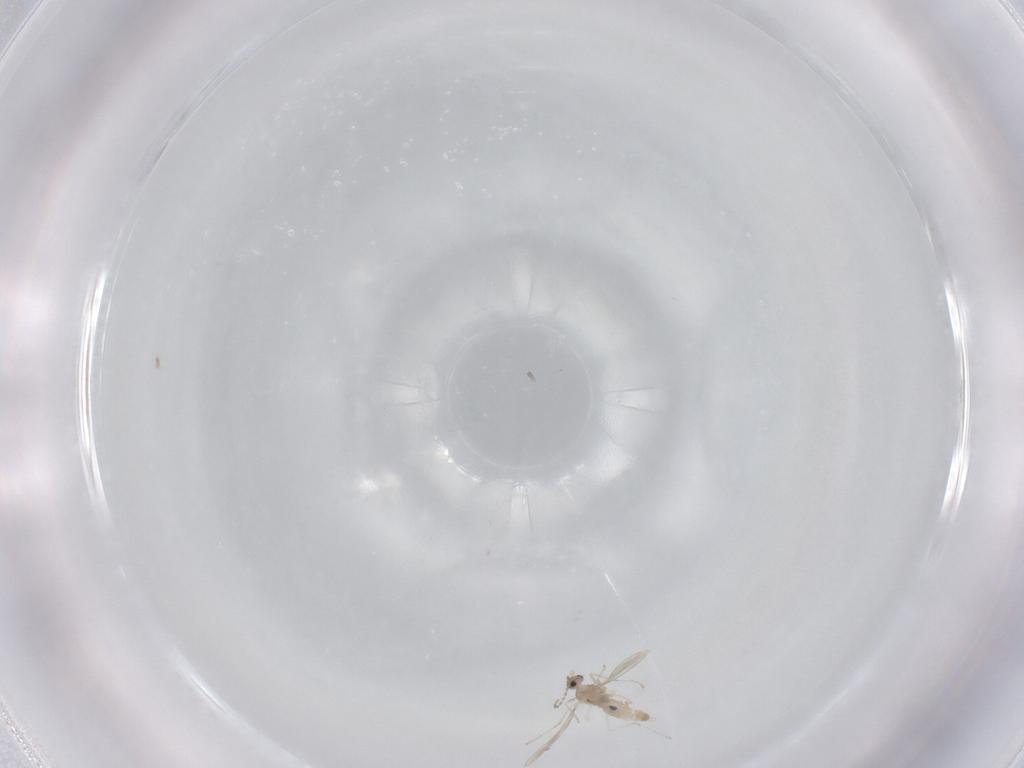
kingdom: Animalia
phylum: Arthropoda
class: Insecta
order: Diptera
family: Cecidomyiidae
